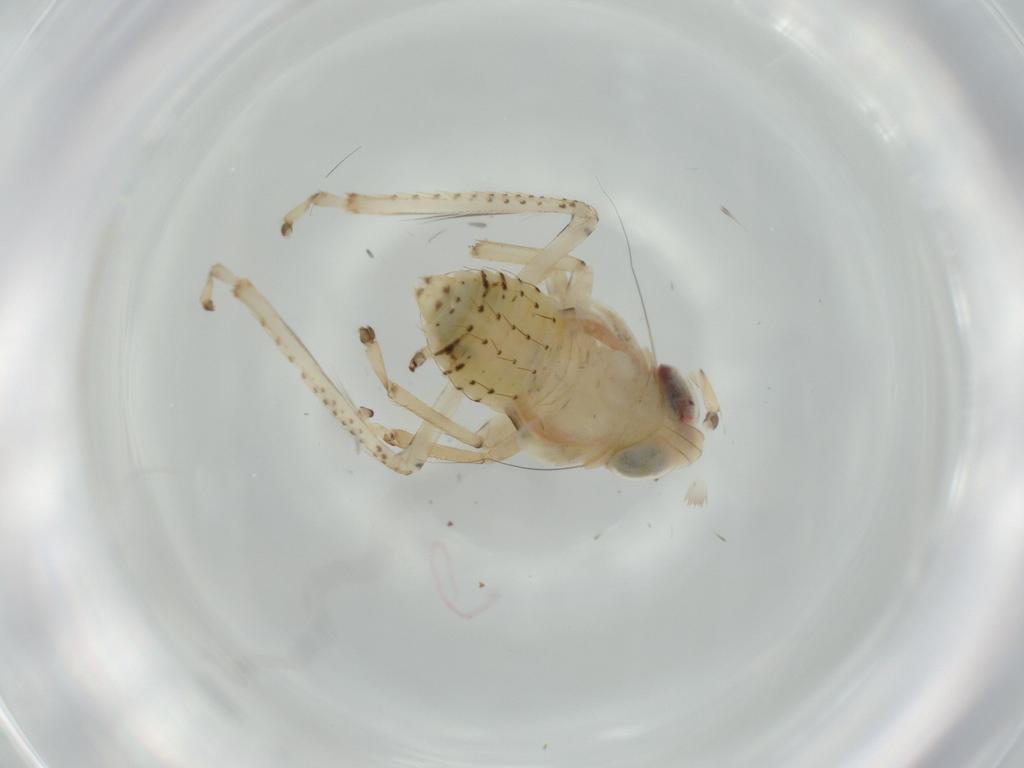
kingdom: Animalia
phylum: Arthropoda
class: Insecta
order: Hemiptera
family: Cicadellidae
